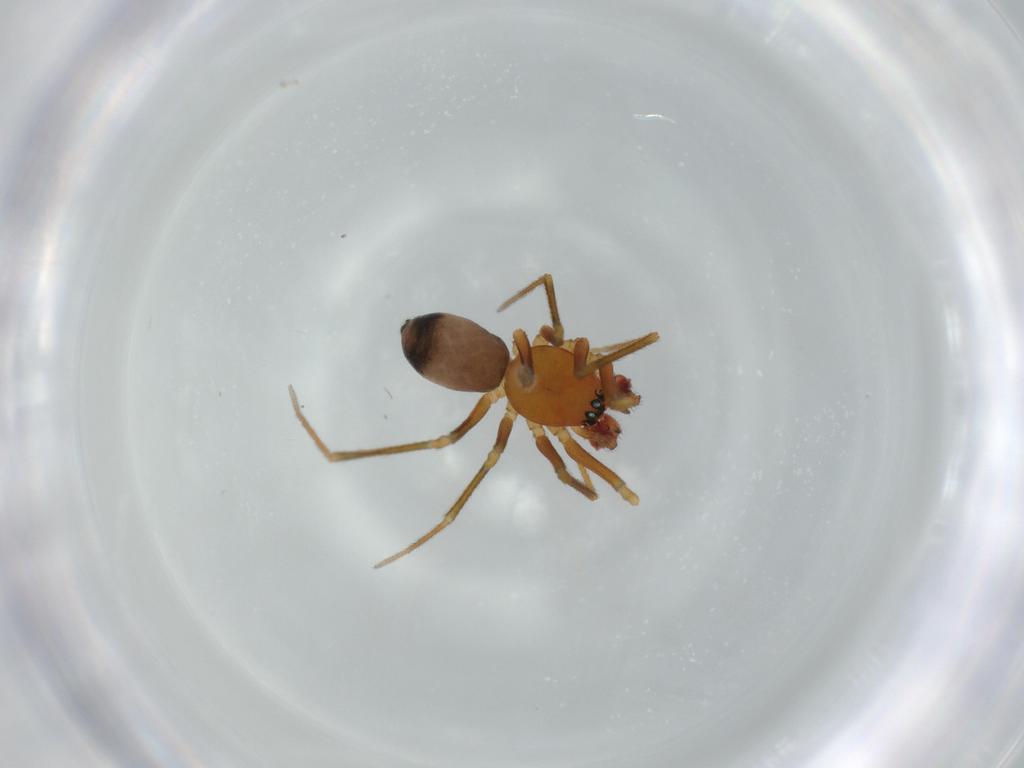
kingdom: Animalia
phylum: Arthropoda
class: Arachnida
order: Araneae
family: Linyphiidae
